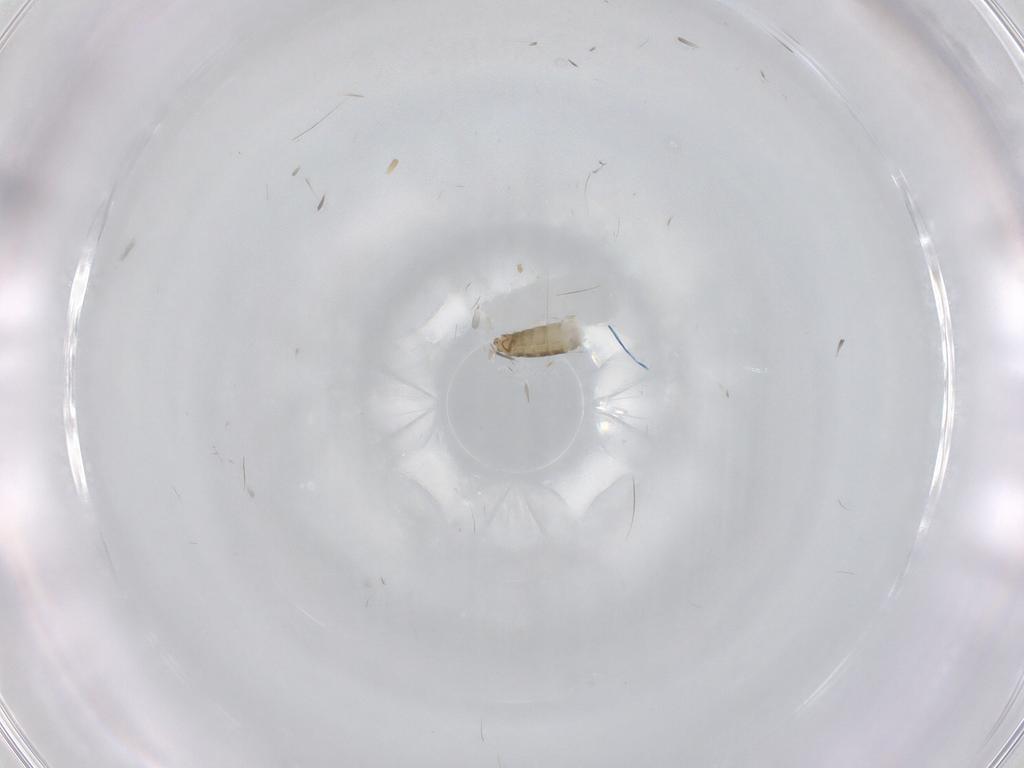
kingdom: Animalia
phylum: Arthropoda
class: Insecta
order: Diptera
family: Chironomidae
